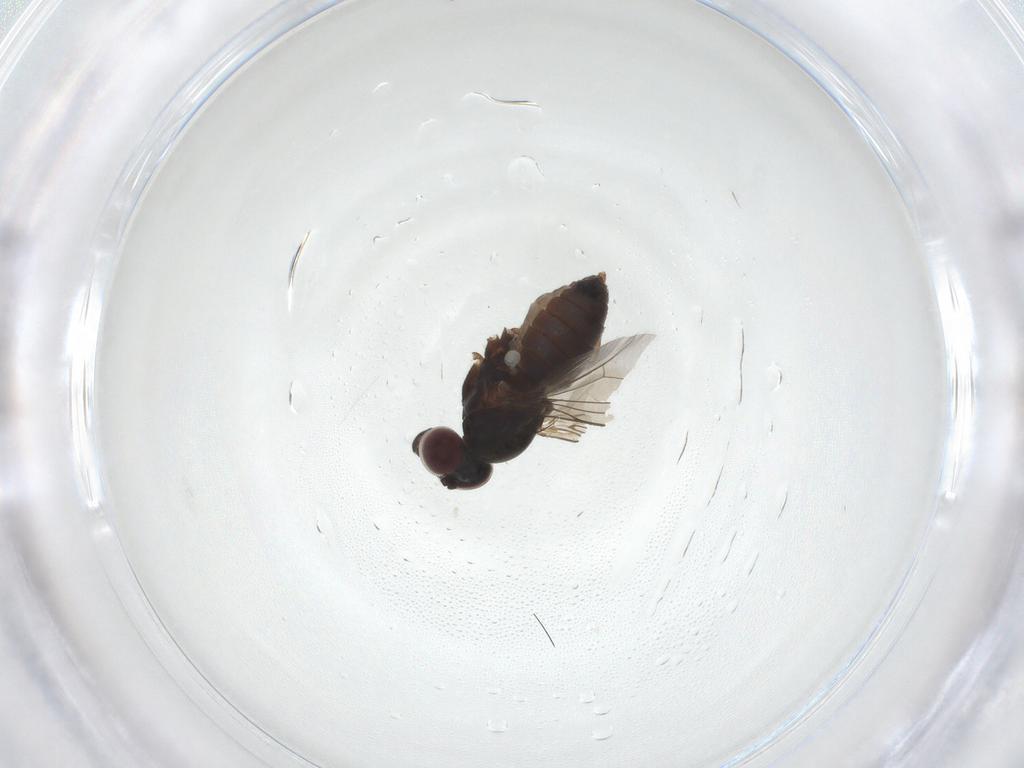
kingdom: Animalia
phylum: Arthropoda
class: Insecta
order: Diptera
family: Dolichopodidae
